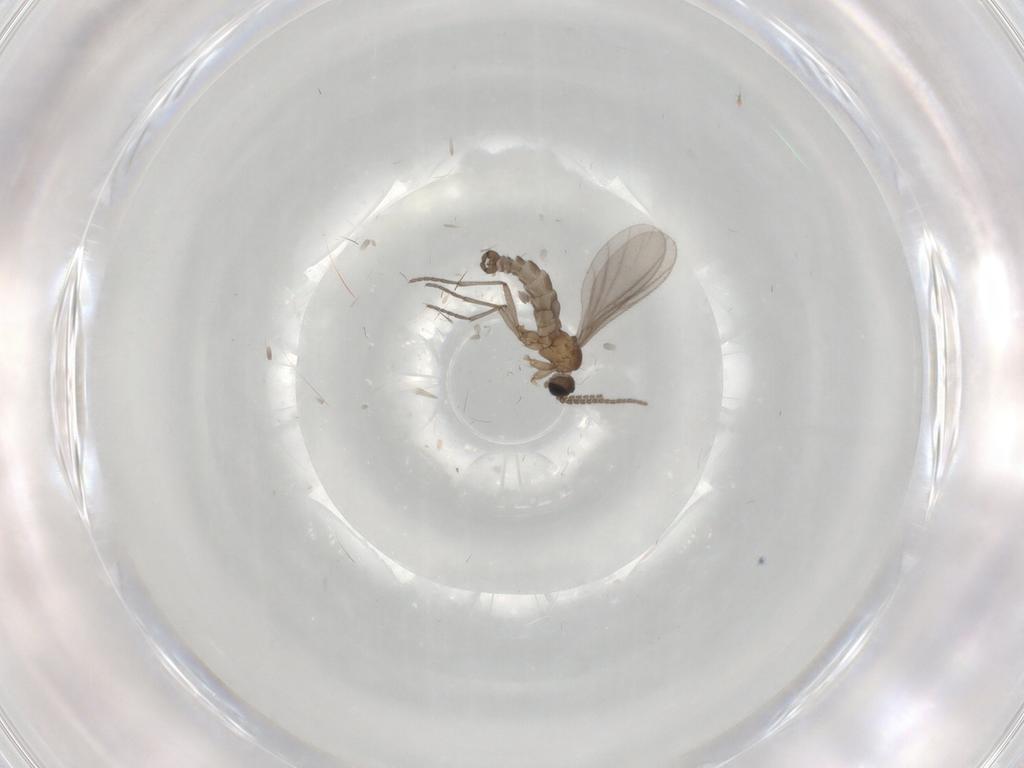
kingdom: Animalia
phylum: Arthropoda
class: Insecta
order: Diptera
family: Sciaridae
